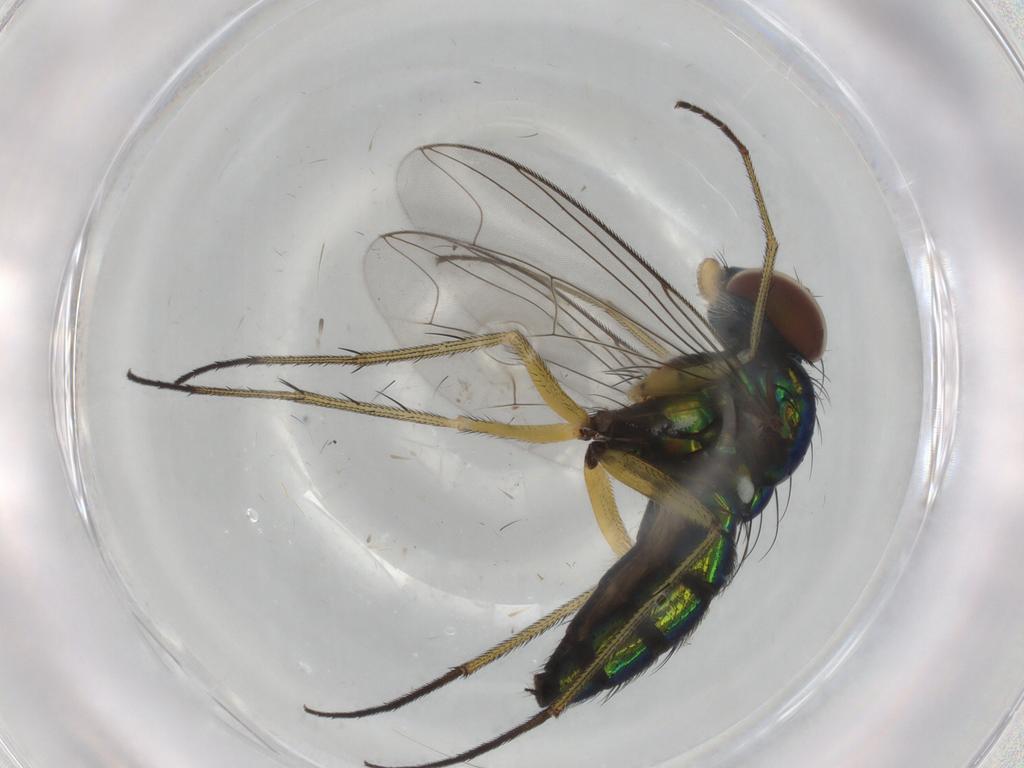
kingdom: Animalia
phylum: Arthropoda
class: Insecta
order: Diptera
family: Dolichopodidae
